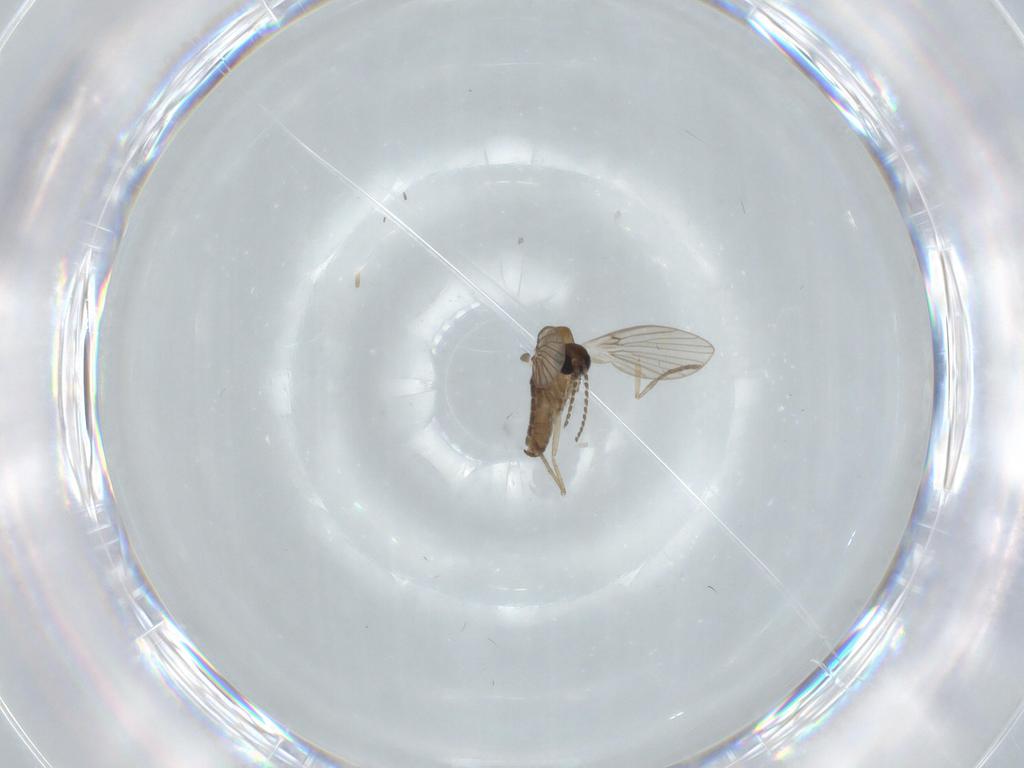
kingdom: Animalia
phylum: Arthropoda
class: Insecta
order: Diptera
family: Psychodidae
